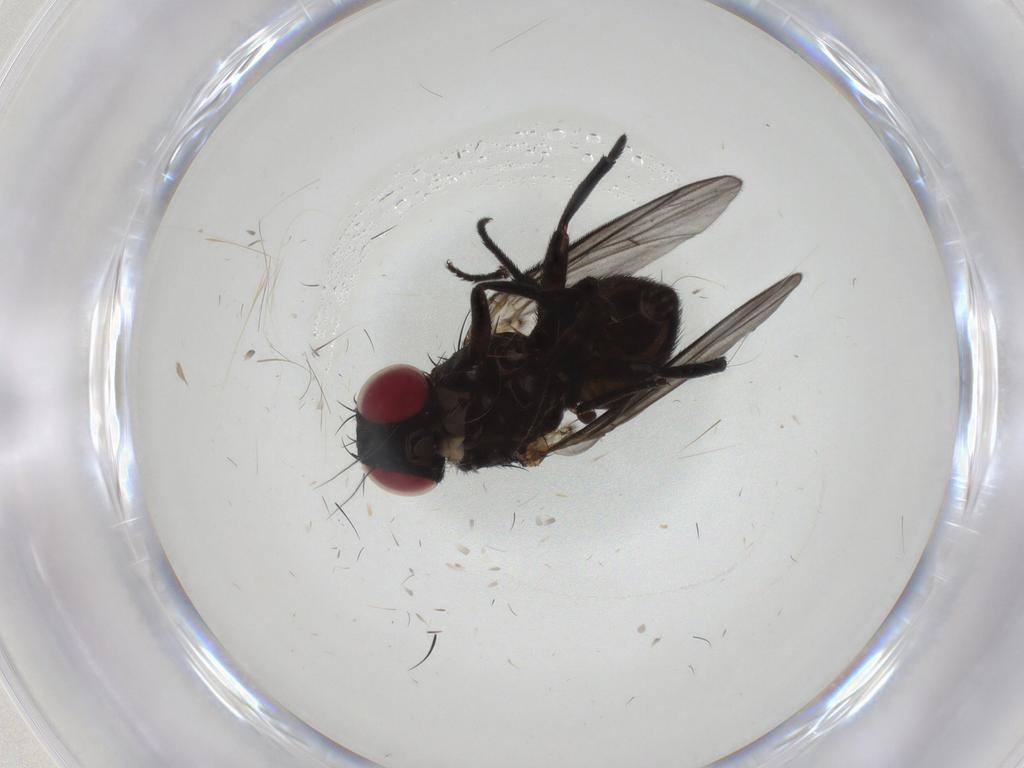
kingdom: Animalia
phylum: Arthropoda
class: Insecta
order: Diptera
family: Agromyzidae
